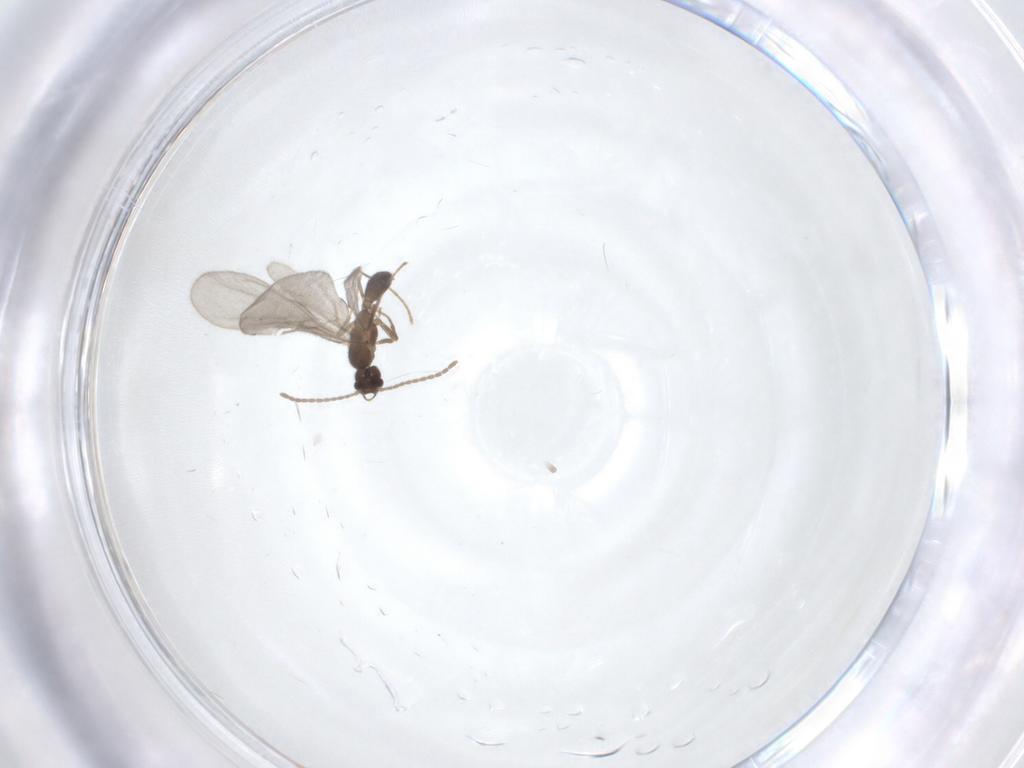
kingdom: Animalia
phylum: Arthropoda
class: Insecta
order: Hymenoptera
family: Formicidae
